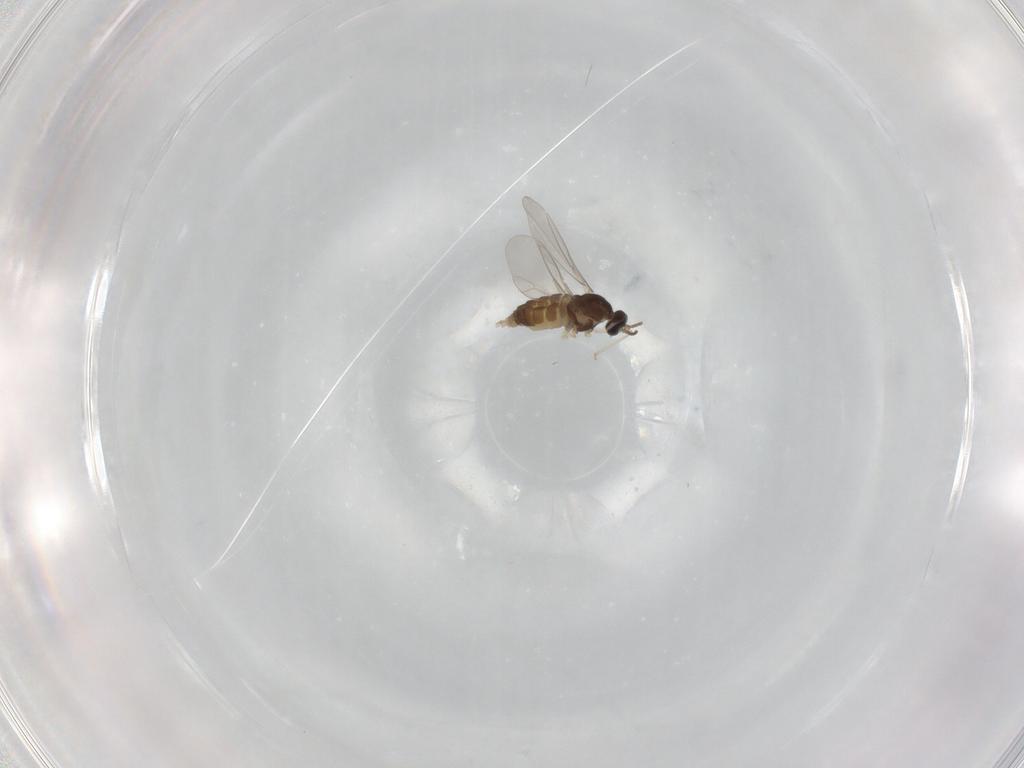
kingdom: Animalia
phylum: Arthropoda
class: Insecta
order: Diptera
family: Cecidomyiidae
